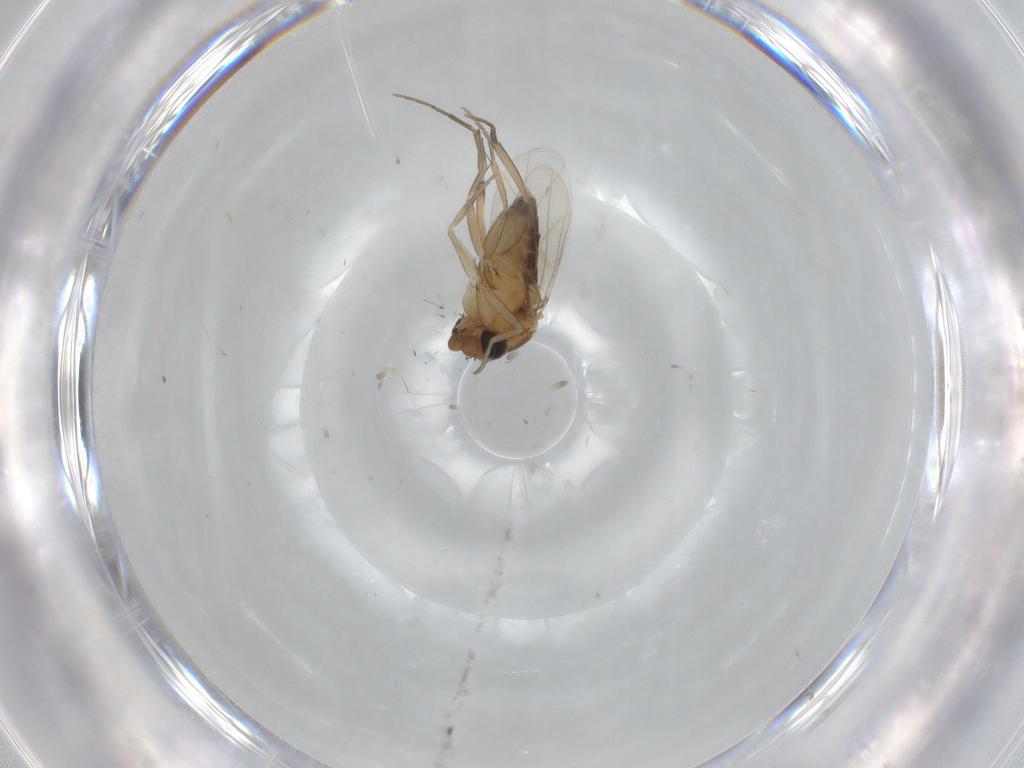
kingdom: Animalia
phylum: Arthropoda
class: Insecta
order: Diptera
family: Phoridae
